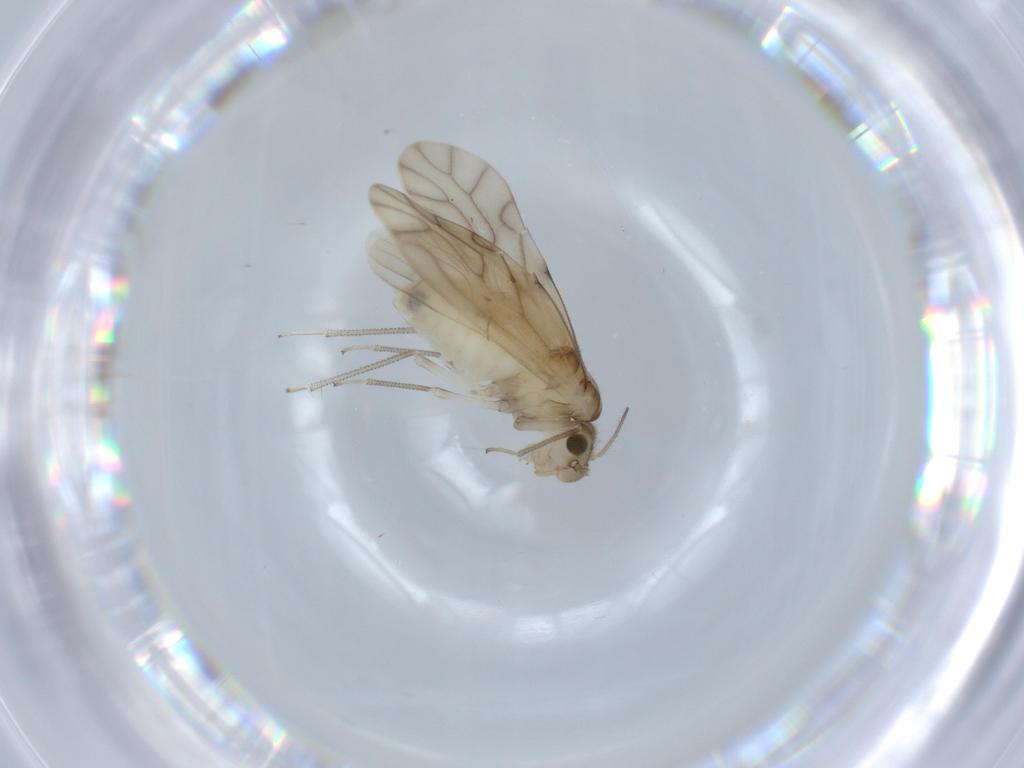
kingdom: Animalia
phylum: Arthropoda
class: Insecta
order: Psocodea
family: Caeciliusidae
